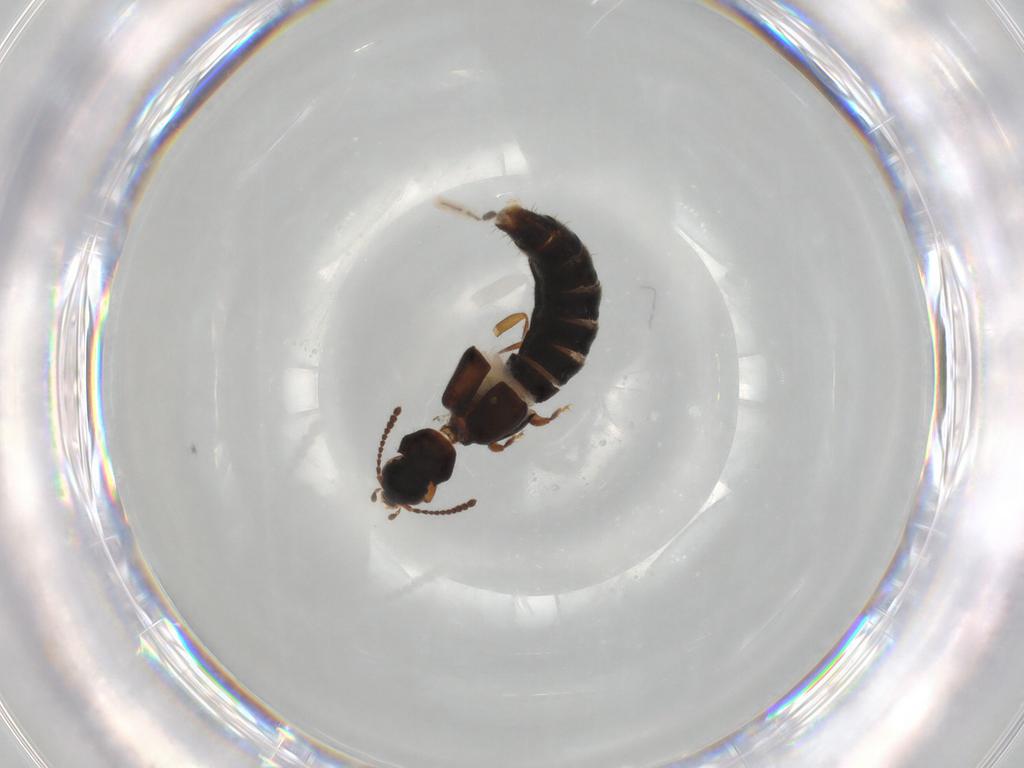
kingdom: Animalia
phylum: Arthropoda
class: Insecta
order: Coleoptera
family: Staphylinidae
